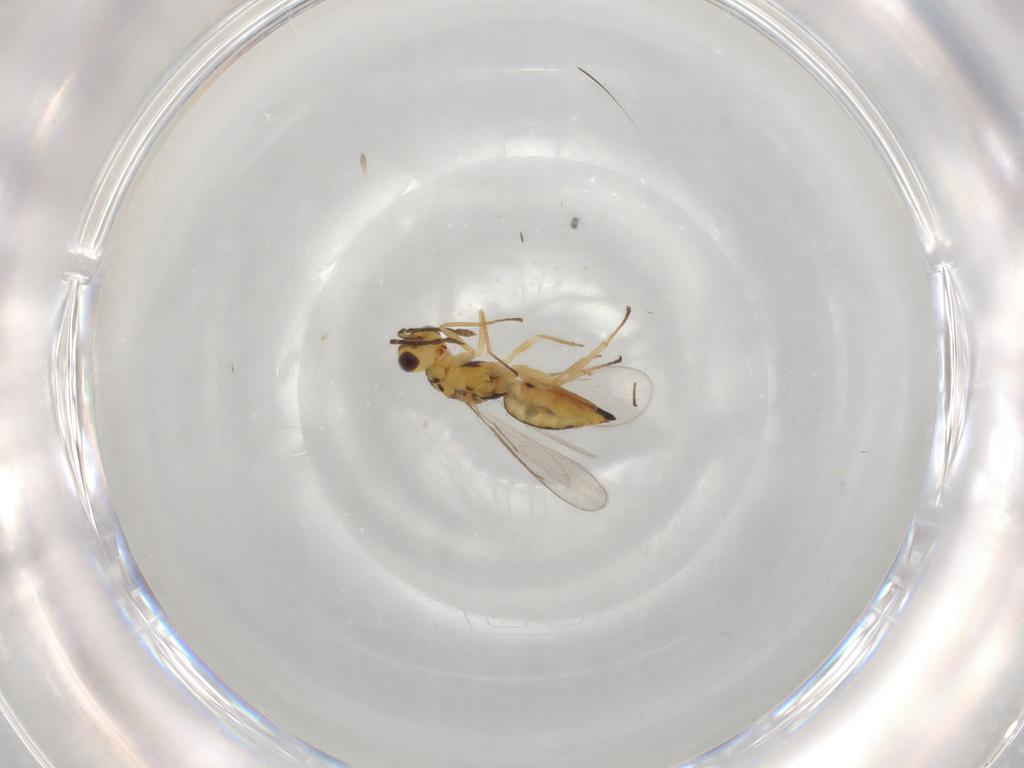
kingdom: Animalia
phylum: Arthropoda
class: Insecta
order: Hymenoptera
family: Eulophidae
